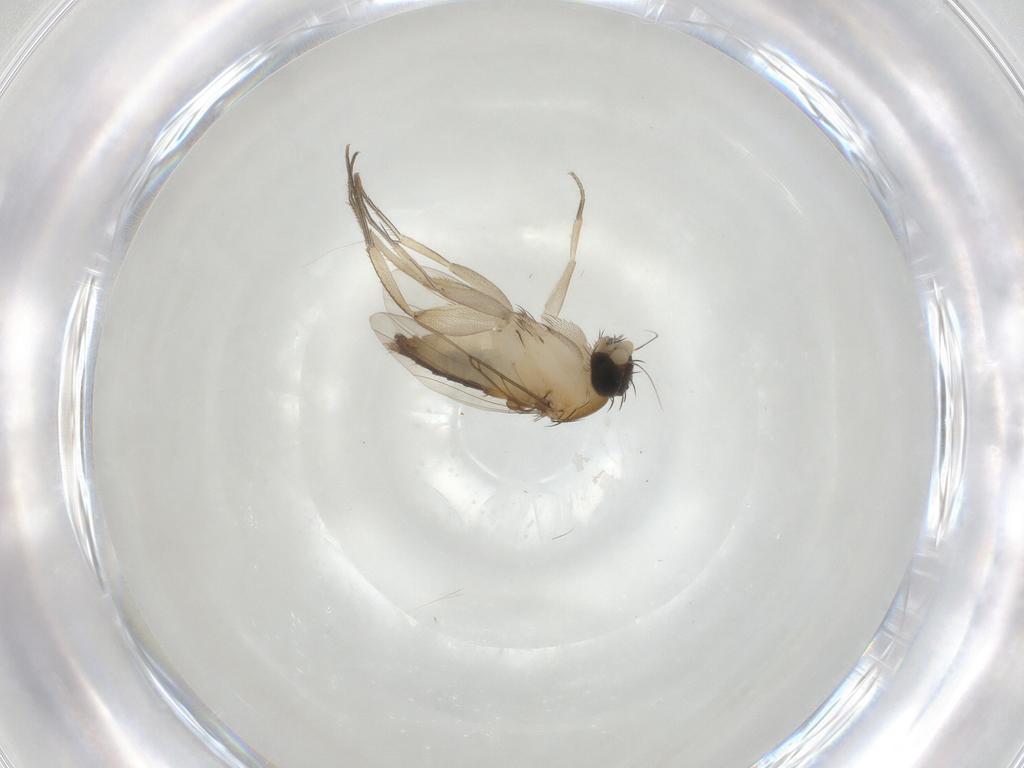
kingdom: Animalia
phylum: Arthropoda
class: Insecta
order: Diptera
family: Phoridae
